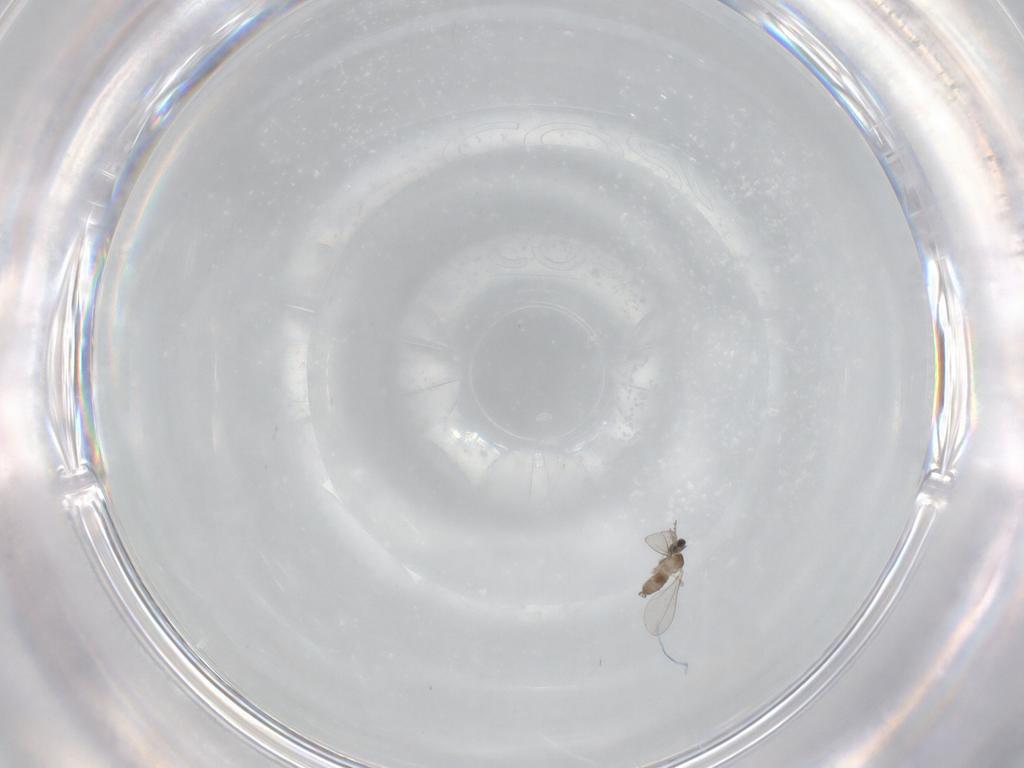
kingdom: Animalia
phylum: Arthropoda
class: Insecta
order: Diptera
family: Cecidomyiidae
